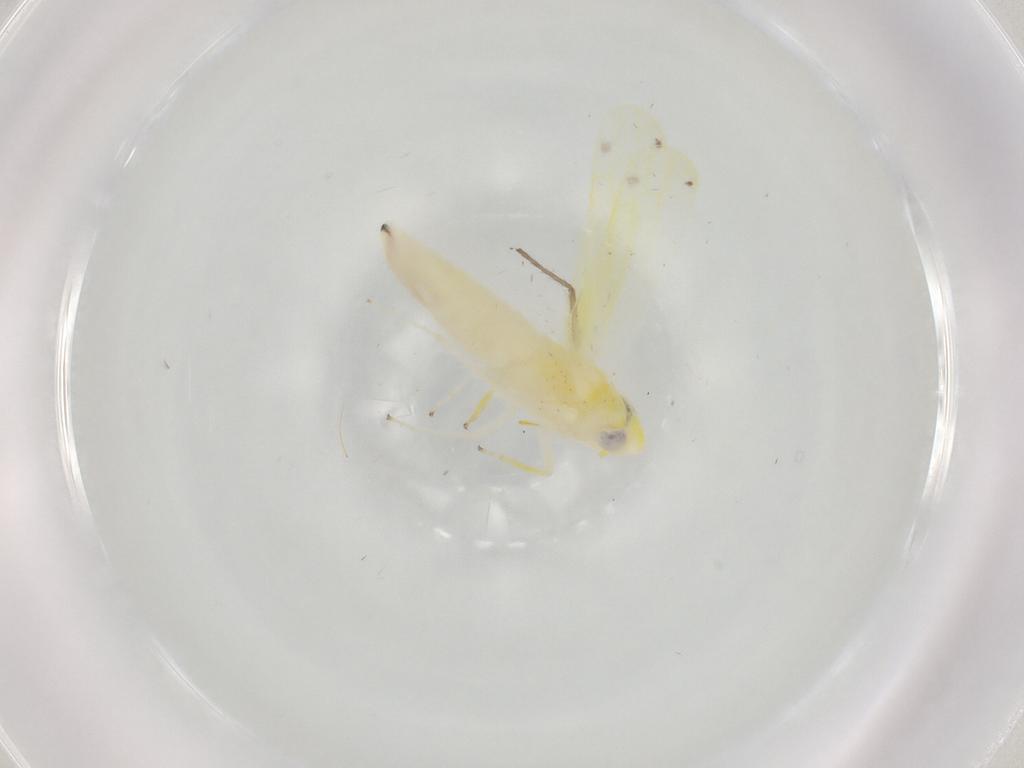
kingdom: Animalia
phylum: Arthropoda
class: Insecta
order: Hemiptera
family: Cicadellidae
